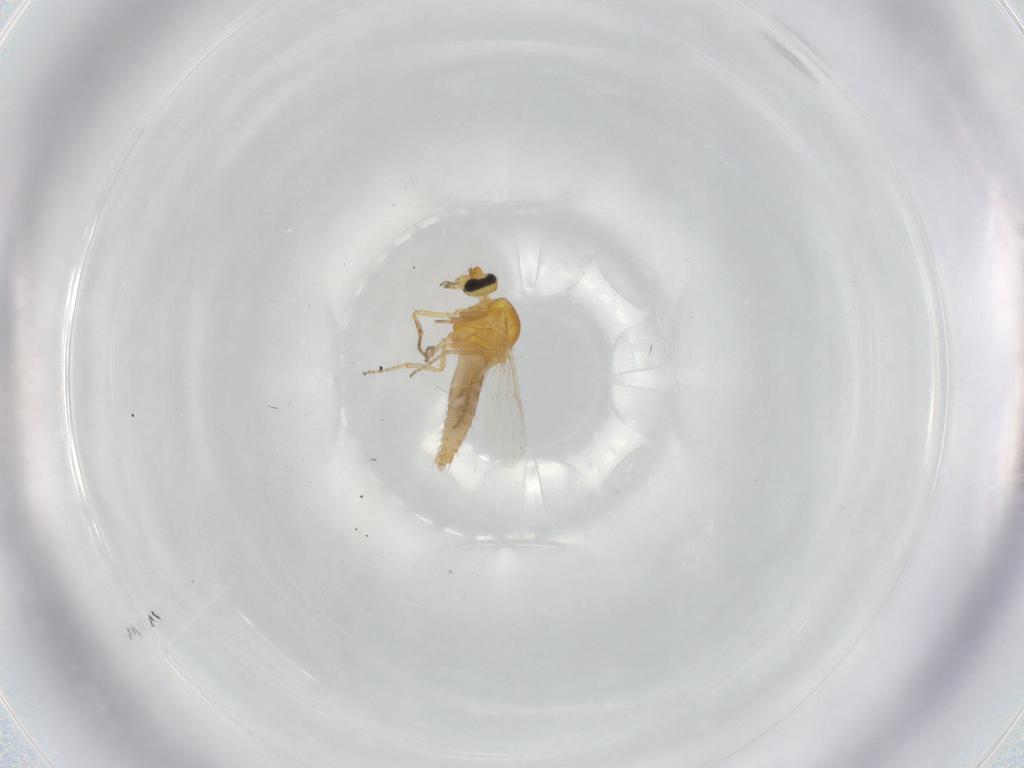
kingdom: Animalia
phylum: Arthropoda
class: Insecta
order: Diptera
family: Ceratopogonidae
